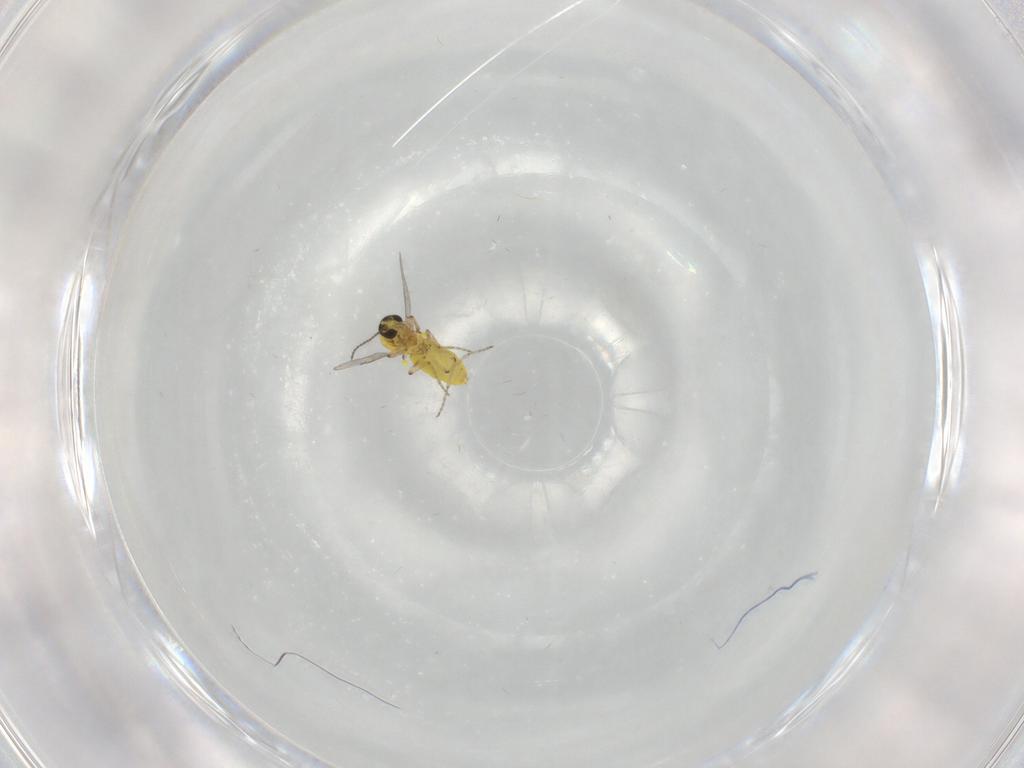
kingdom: Animalia
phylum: Arthropoda
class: Insecta
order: Diptera
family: Ceratopogonidae
